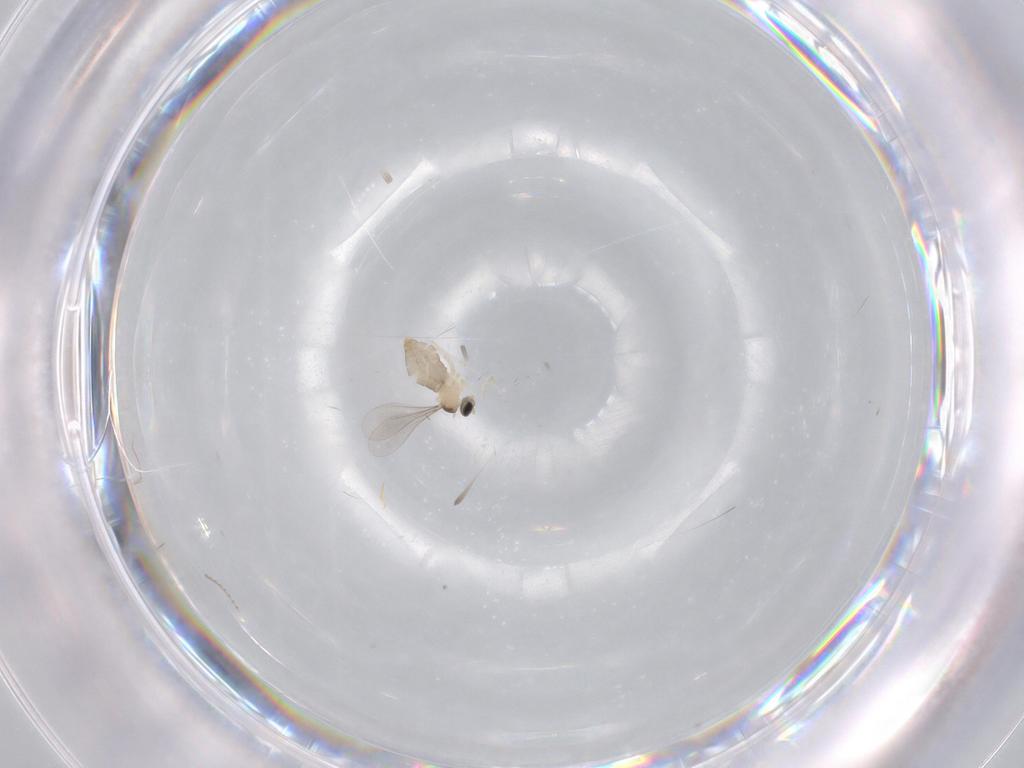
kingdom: Animalia
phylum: Arthropoda
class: Insecta
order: Diptera
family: Cecidomyiidae
